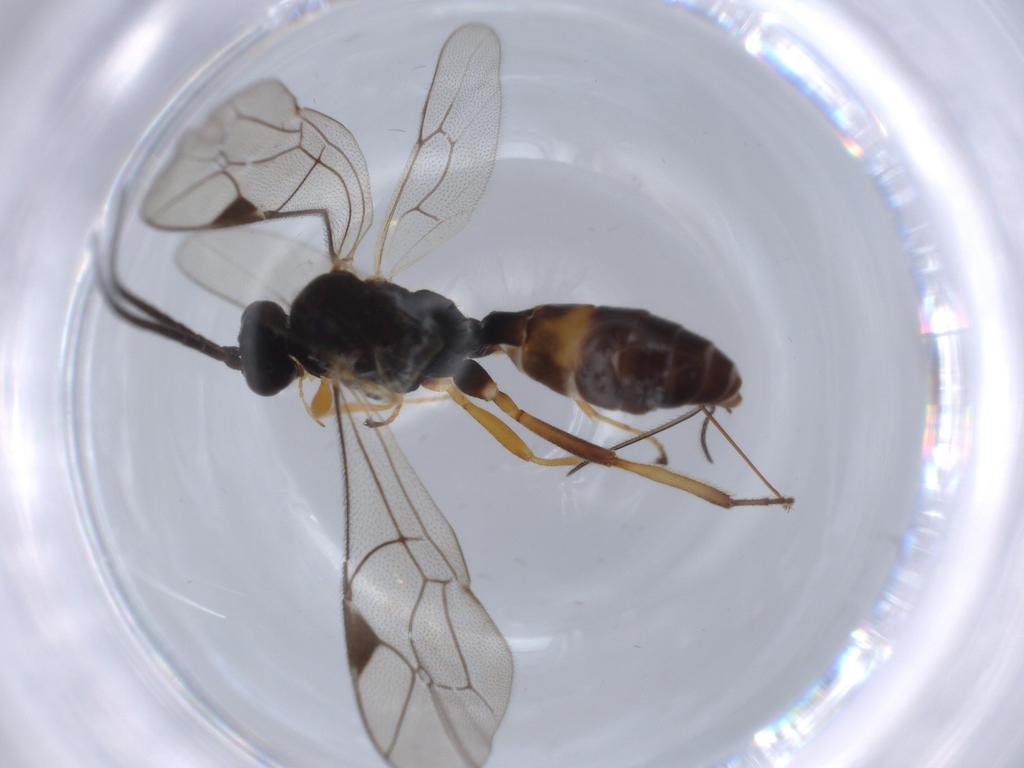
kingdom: Animalia
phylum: Arthropoda
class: Insecta
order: Hymenoptera
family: Ichneumonidae
